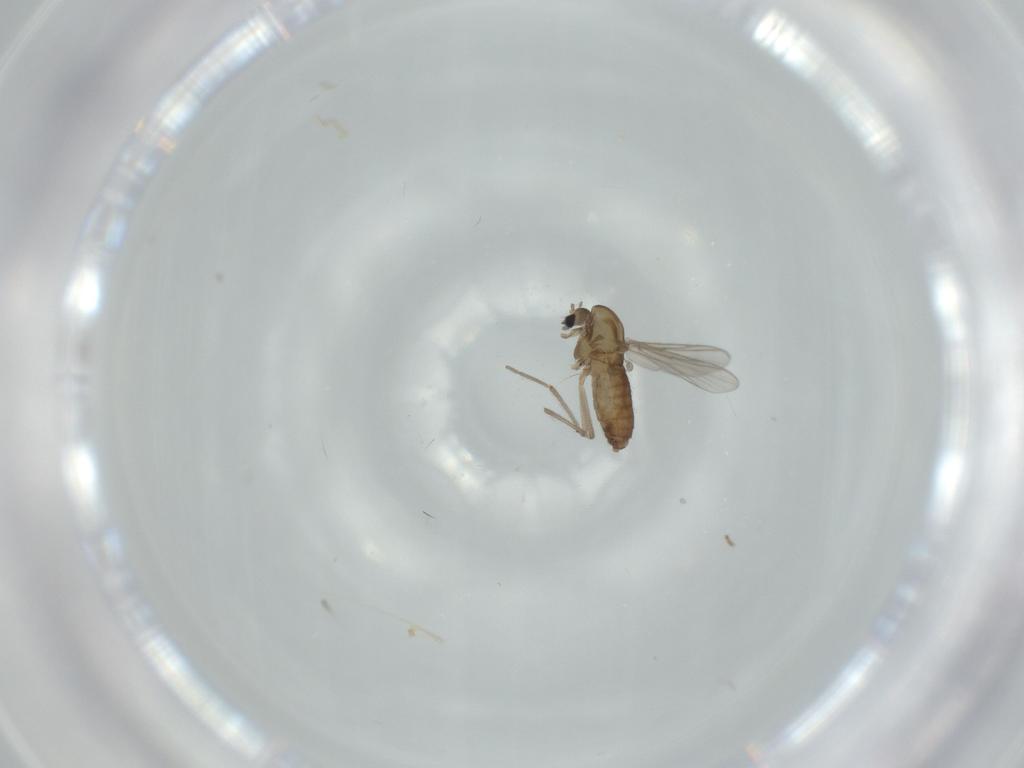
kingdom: Animalia
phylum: Arthropoda
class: Insecta
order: Diptera
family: Chironomidae
